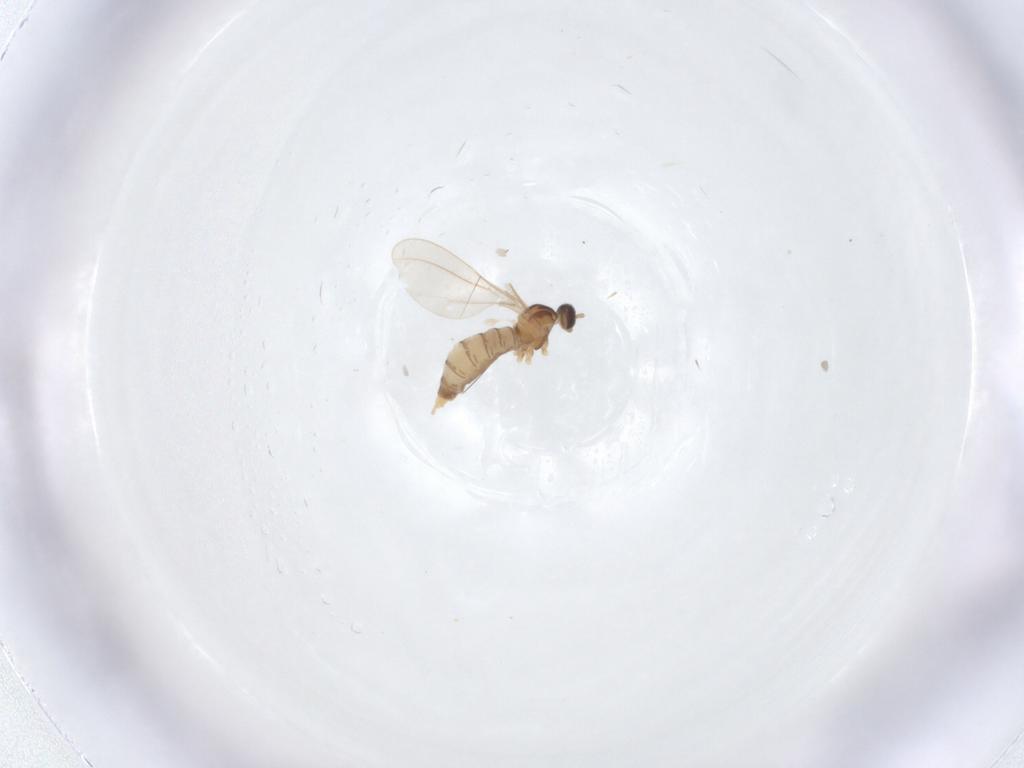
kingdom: Animalia
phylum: Arthropoda
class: Insecta
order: Diptera
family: Cecidomyiidae
